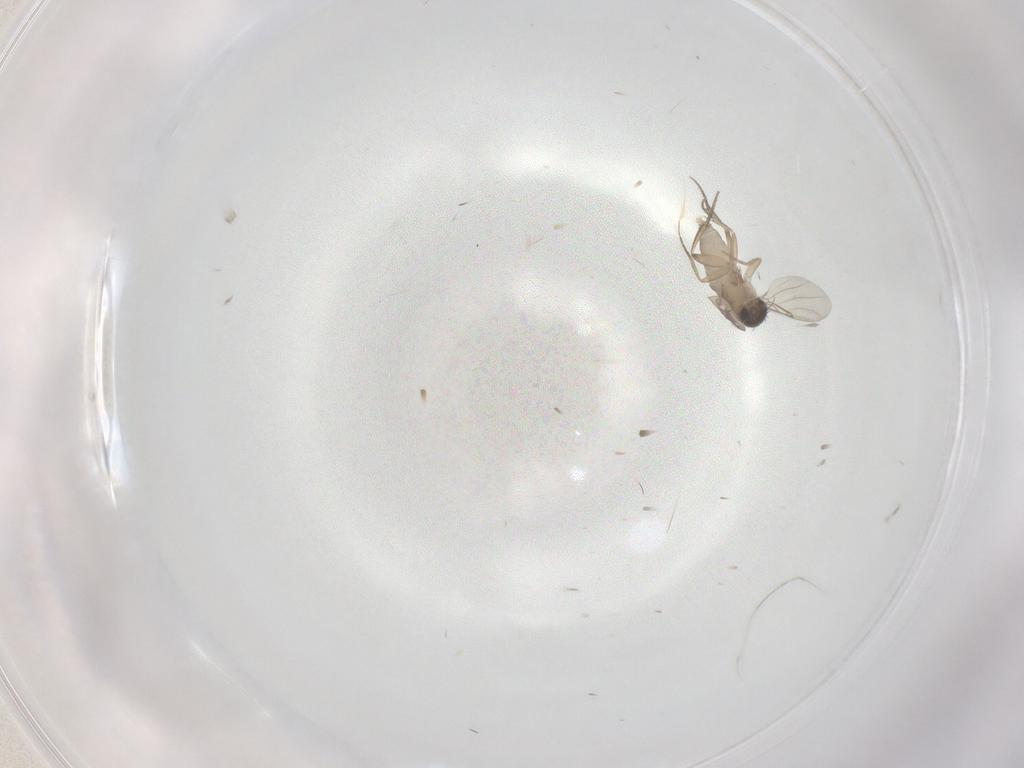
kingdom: Animalia
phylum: Arthropoda
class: Insecta
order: Diptera
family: Phoridae
